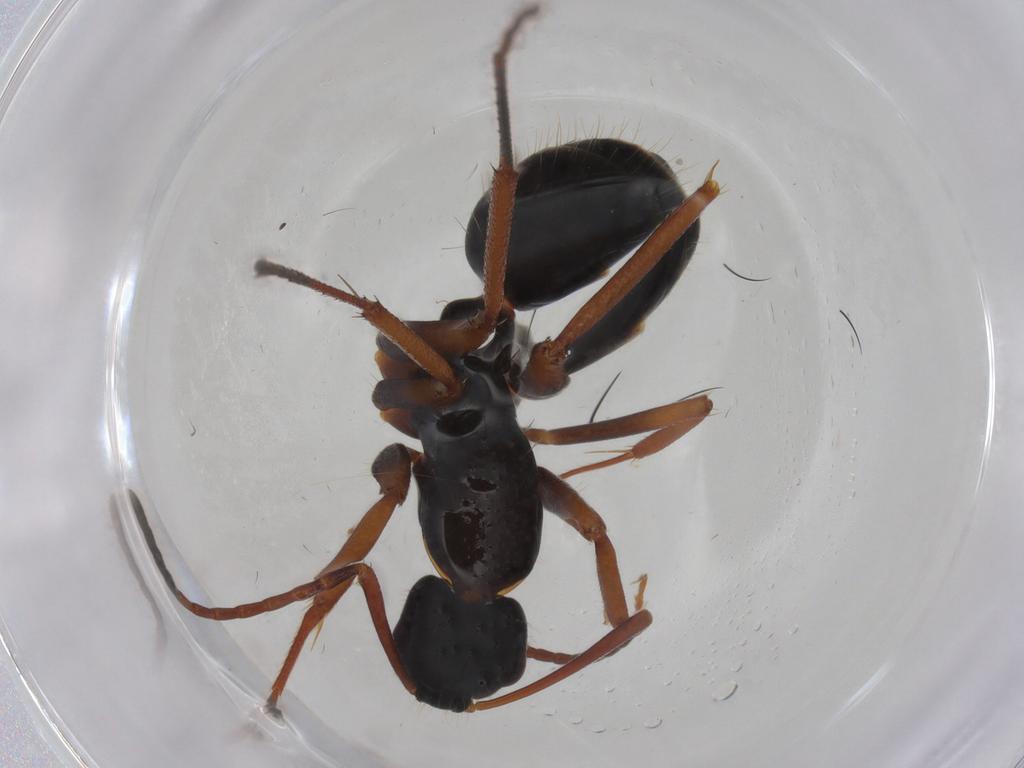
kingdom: Animalia
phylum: Arthropoda
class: Insecta
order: Hymenoptera
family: Formicidae
